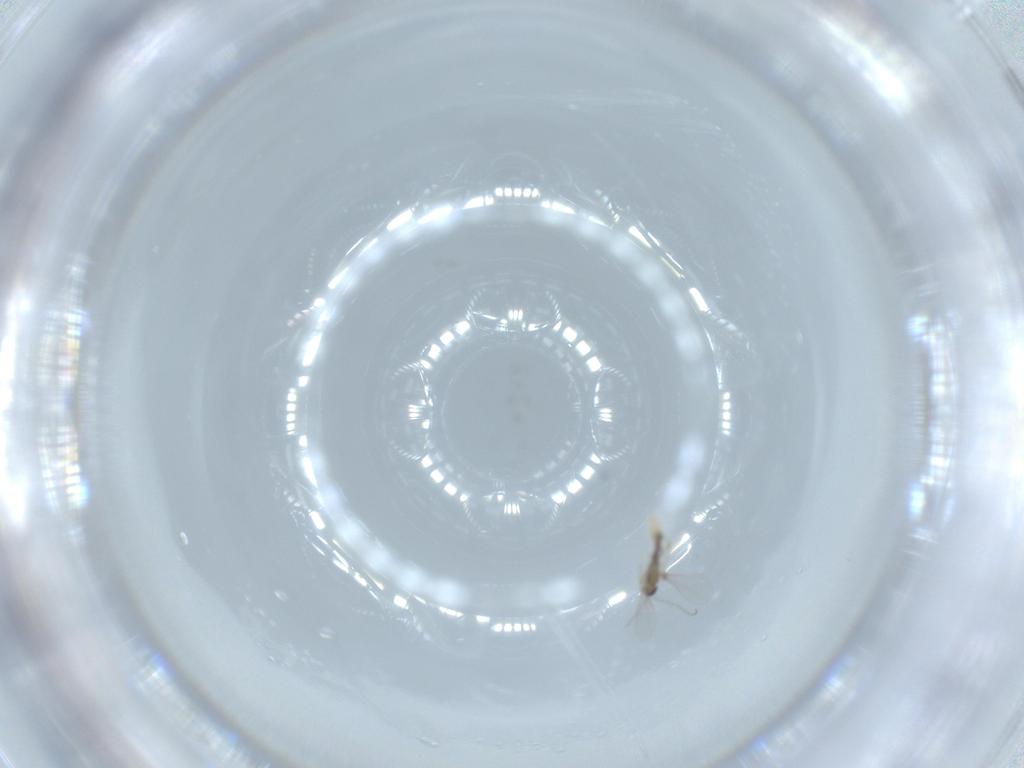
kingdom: Animalia
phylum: Arthropoda
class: Insecta
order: Diptera
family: Cecidomyiidae
